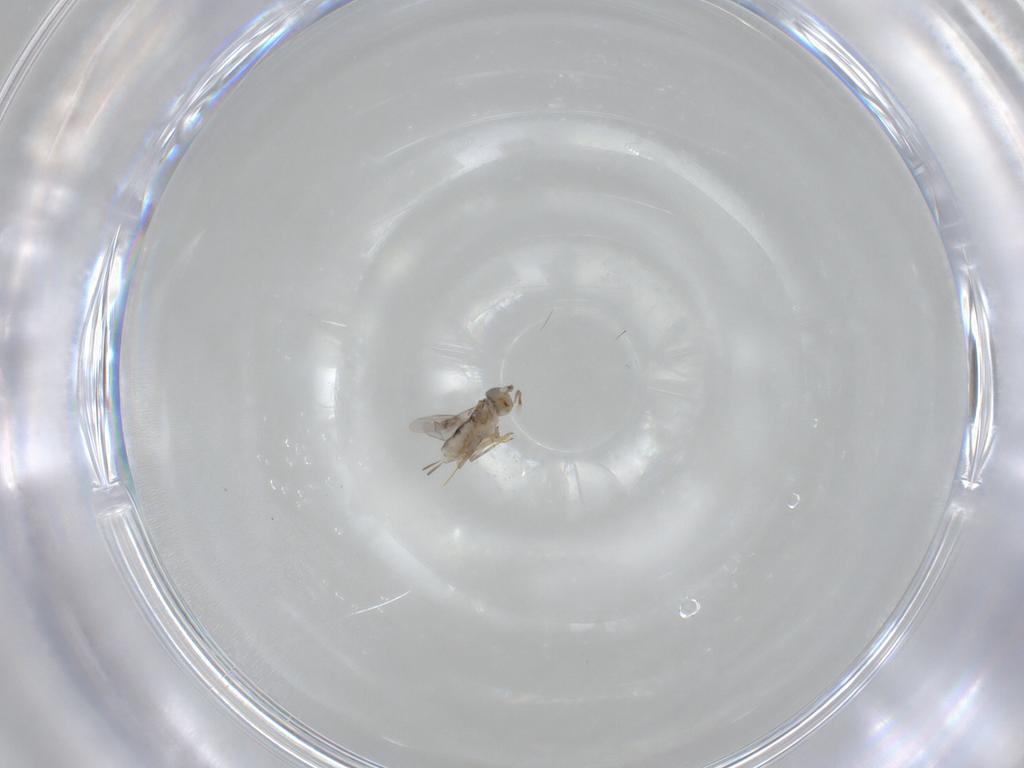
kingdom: Animalia
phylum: Arthropoda
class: Insecta
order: Hymenoptera
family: Encyrtidae
